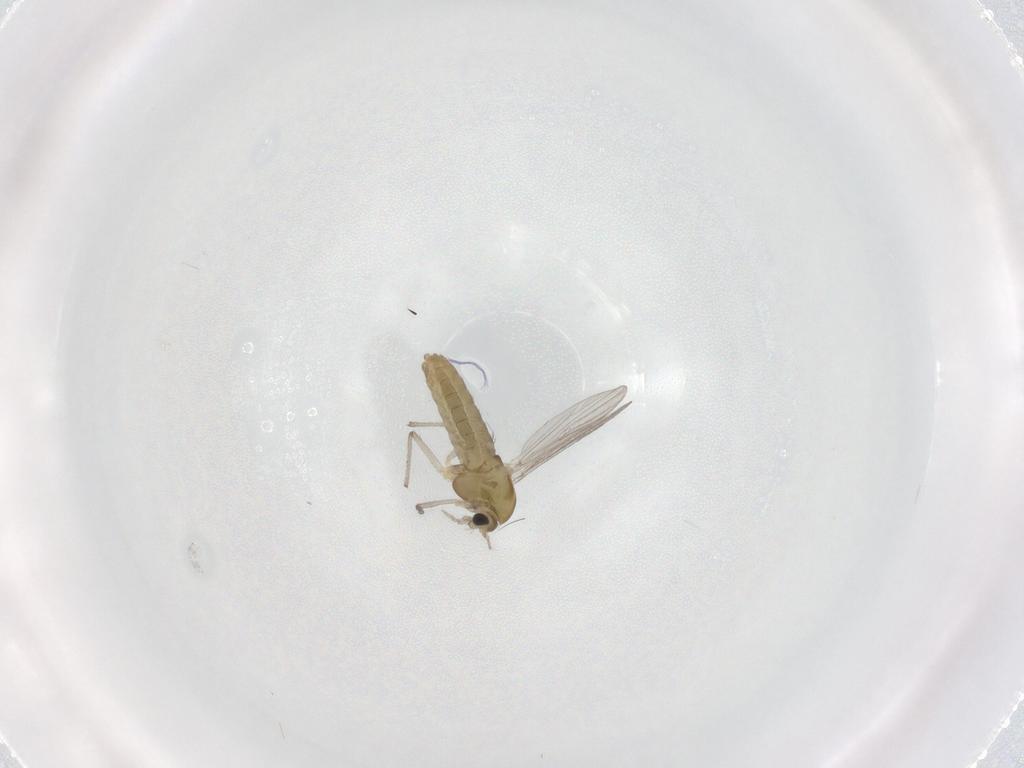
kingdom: Animalia
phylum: Arthropoda
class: Insecta
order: Diptera
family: Chironomidae
